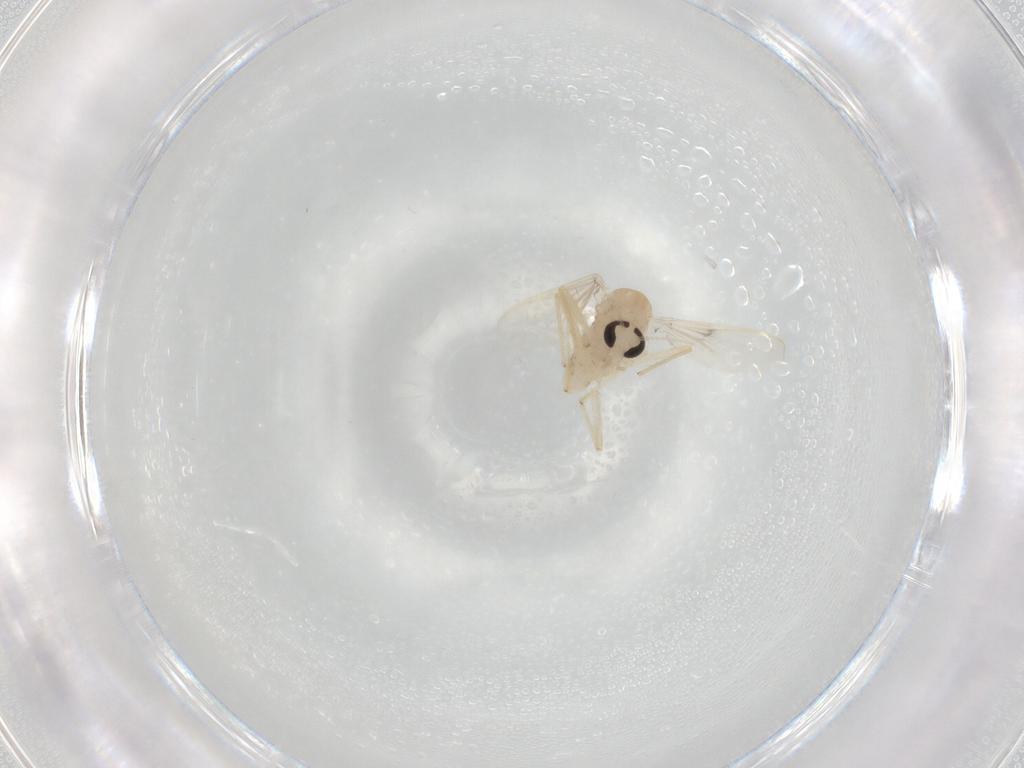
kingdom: Animalia
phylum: Arthropoda
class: Insecta
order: Diptera
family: Chironomidae
